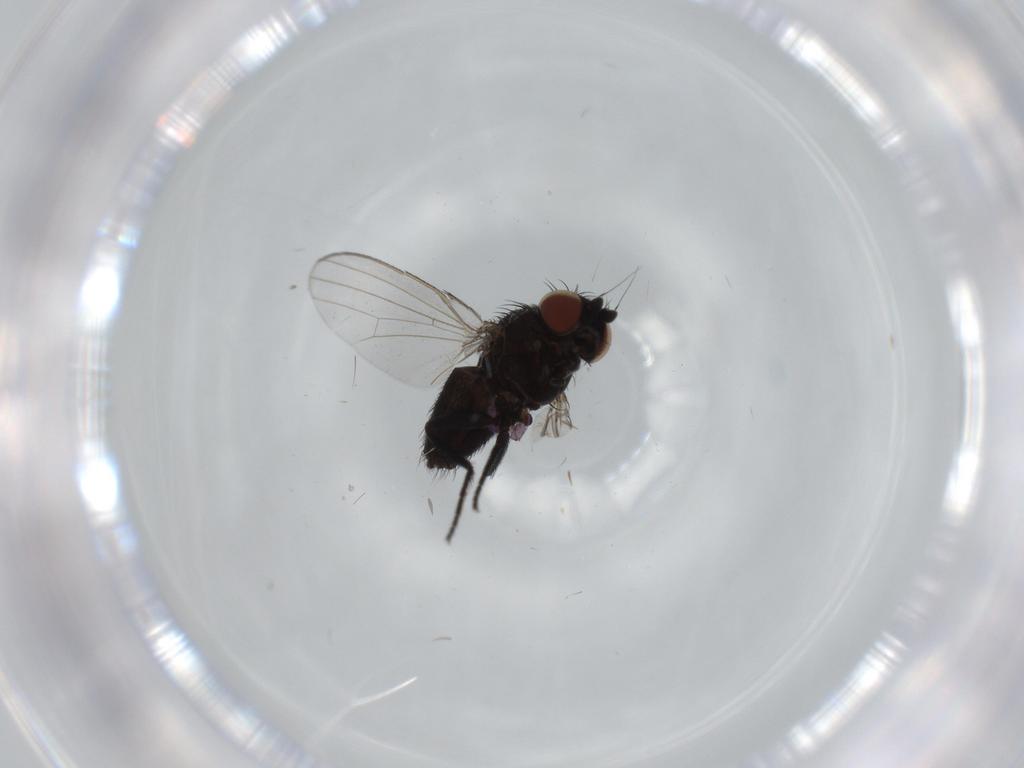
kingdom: Animalia
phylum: Arthropoda
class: Insecta
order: Diptera
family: Milichiidae
